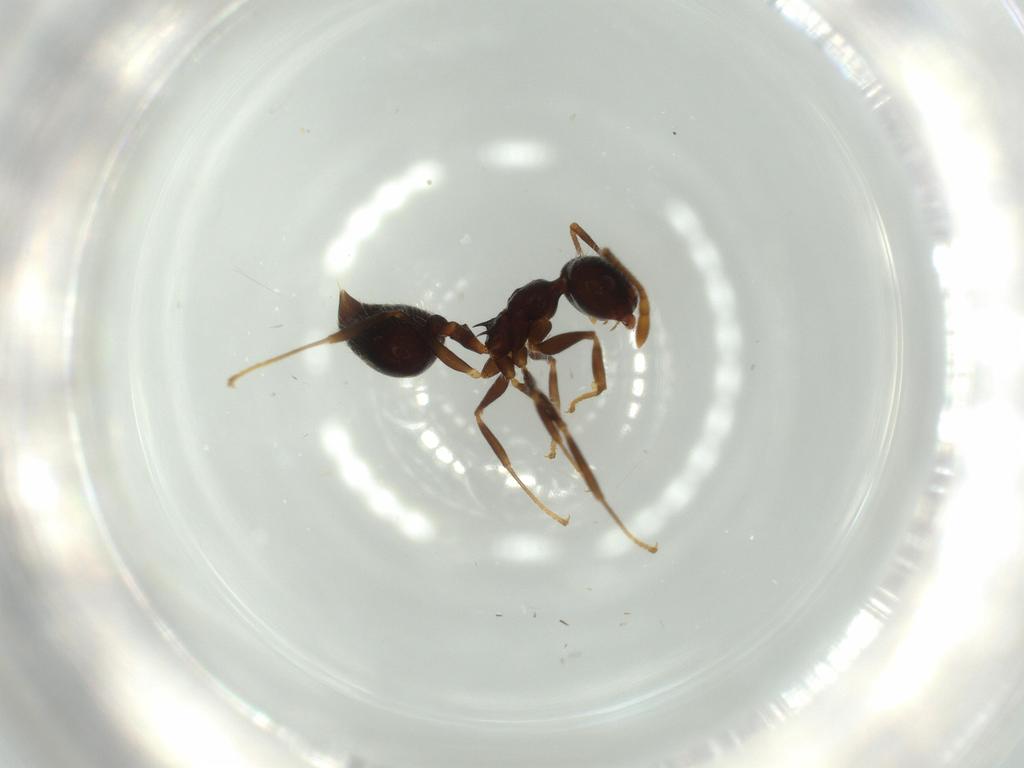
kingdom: Animalia
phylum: Arthropoda
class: Insecta
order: Hymenoptera
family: Formicidae
